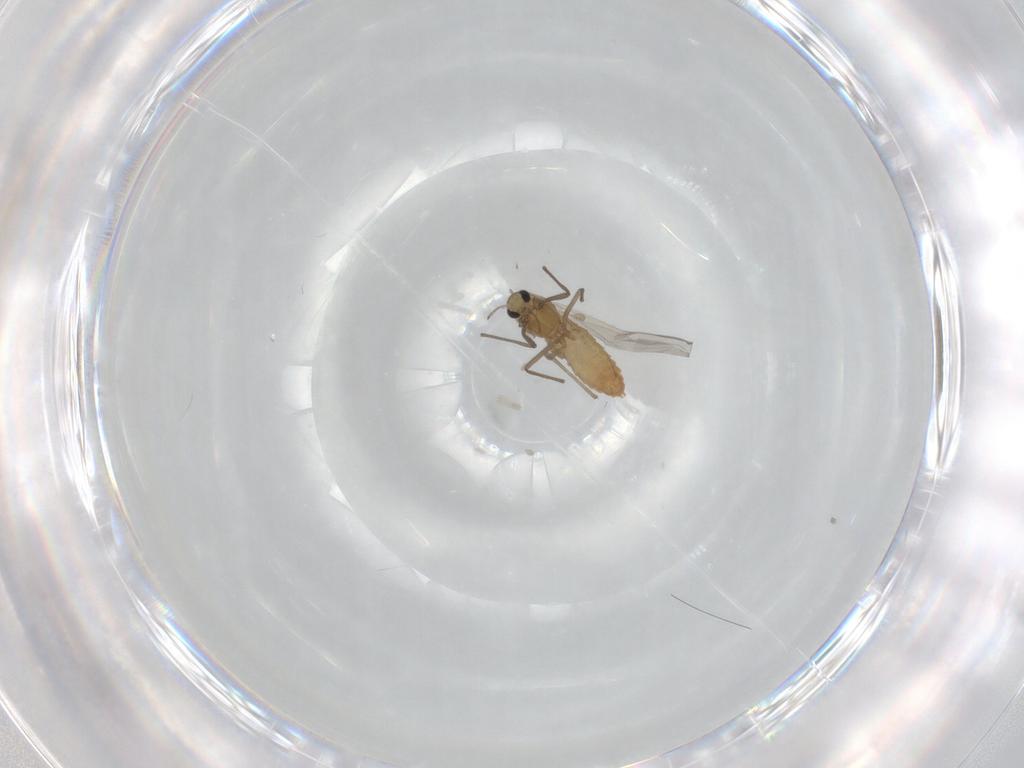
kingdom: Animalia
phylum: Arthropoda
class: Insecta
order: Diptera
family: Chironomidae
